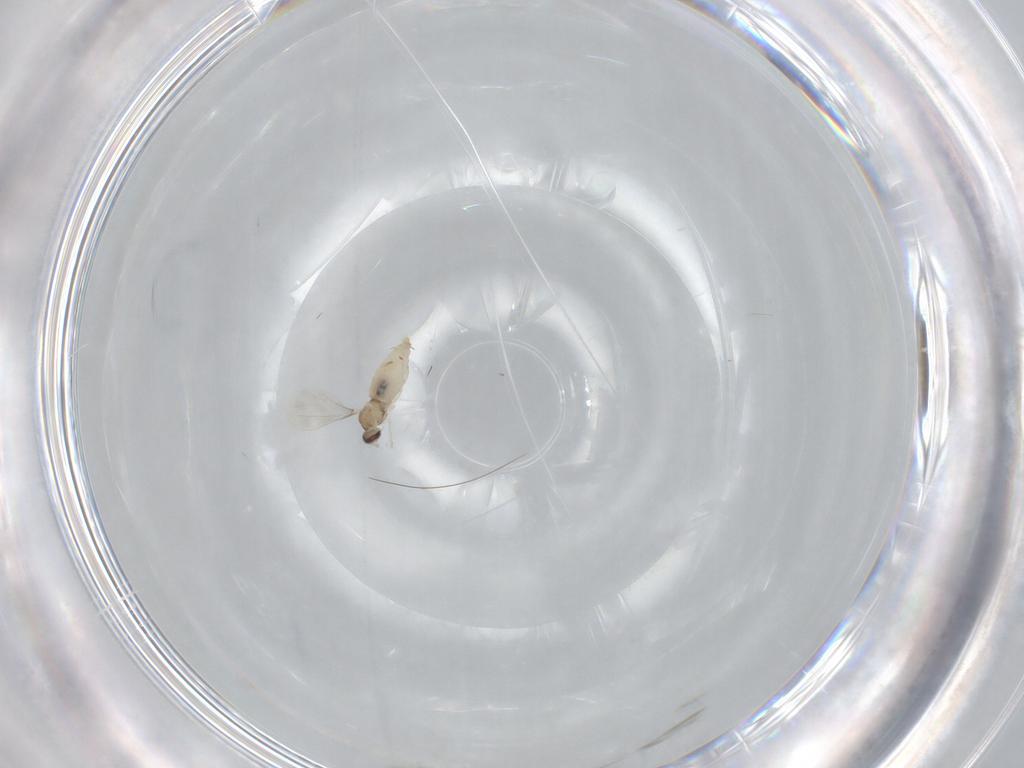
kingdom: Animalia
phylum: Arthropoda
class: Insecta
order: Diptera
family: Cecidomyiidae
